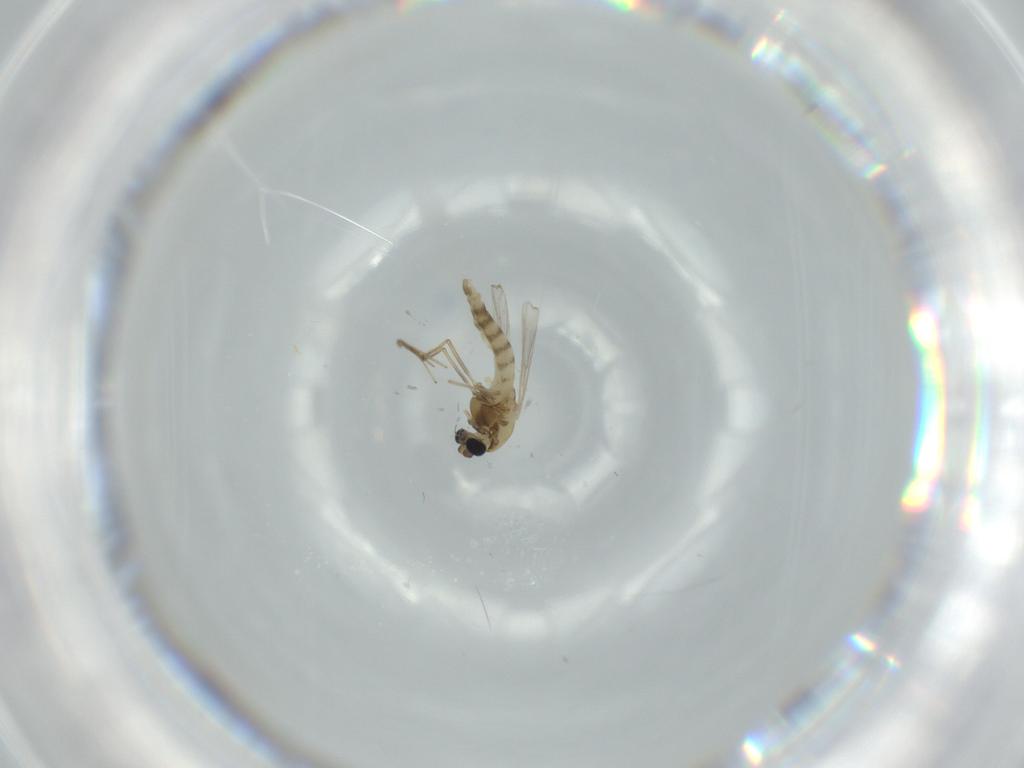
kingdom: Animalia
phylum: Arthropoda
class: Insecta
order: Diptera
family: Chironomidae
